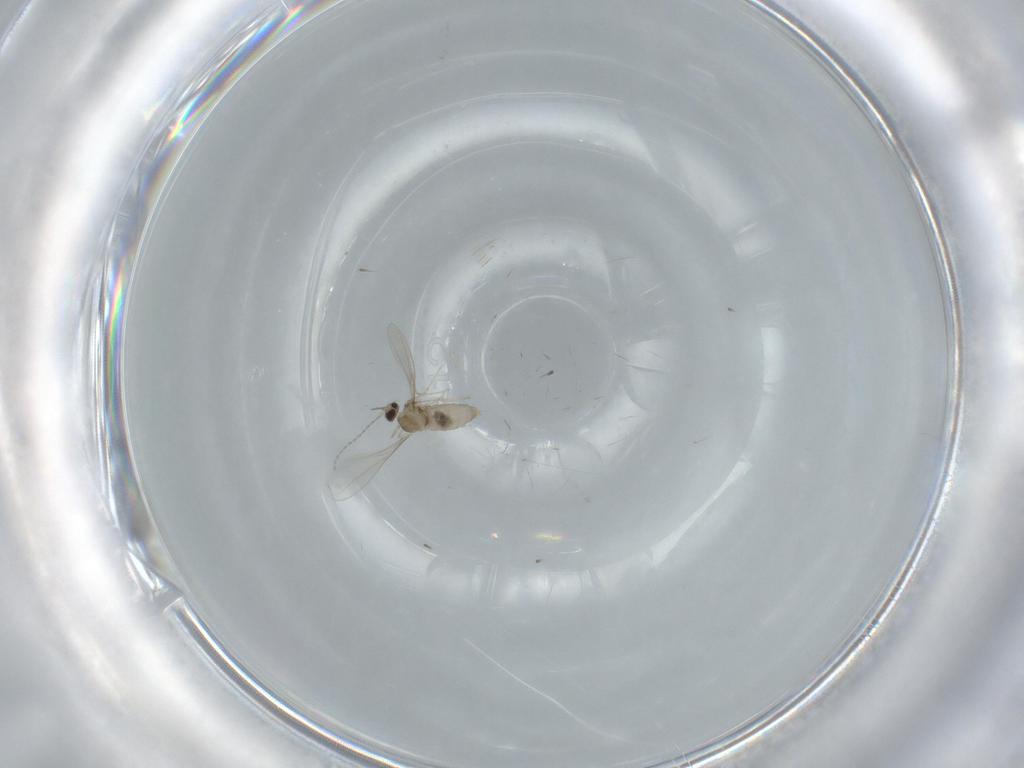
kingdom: Animalia
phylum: Arthropoda
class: Insecta
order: Diptera
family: Cecidomyiidae
